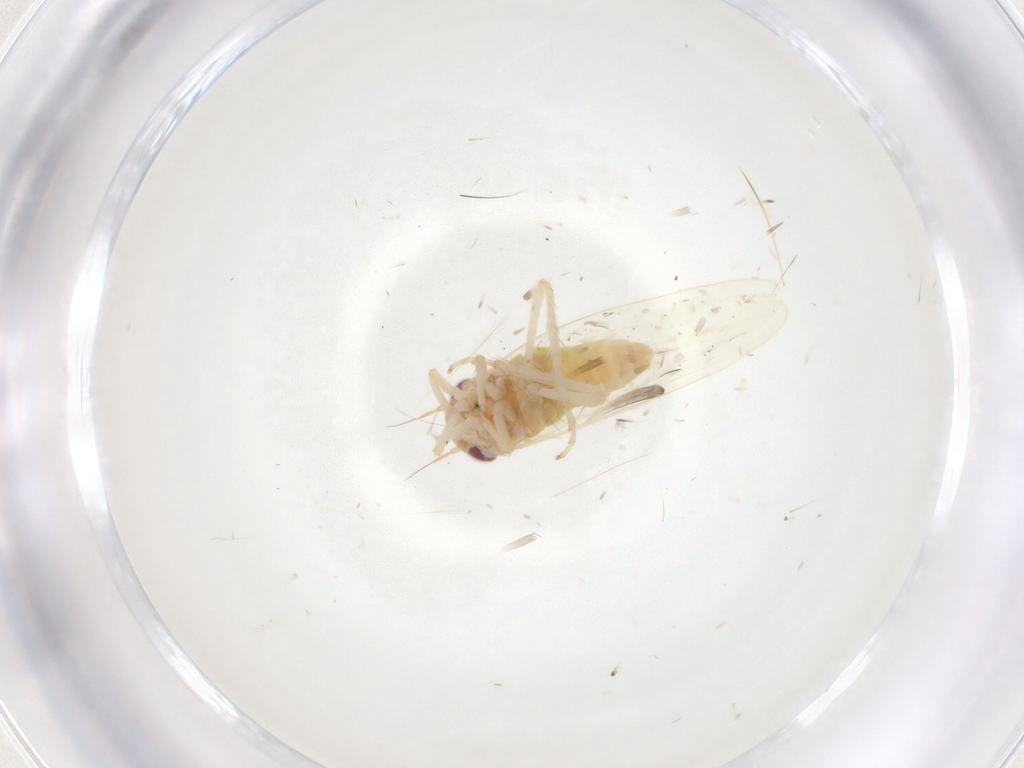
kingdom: Animalia
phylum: Arthropoda
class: Insecta
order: Hemiptera
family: Cicadellidae
